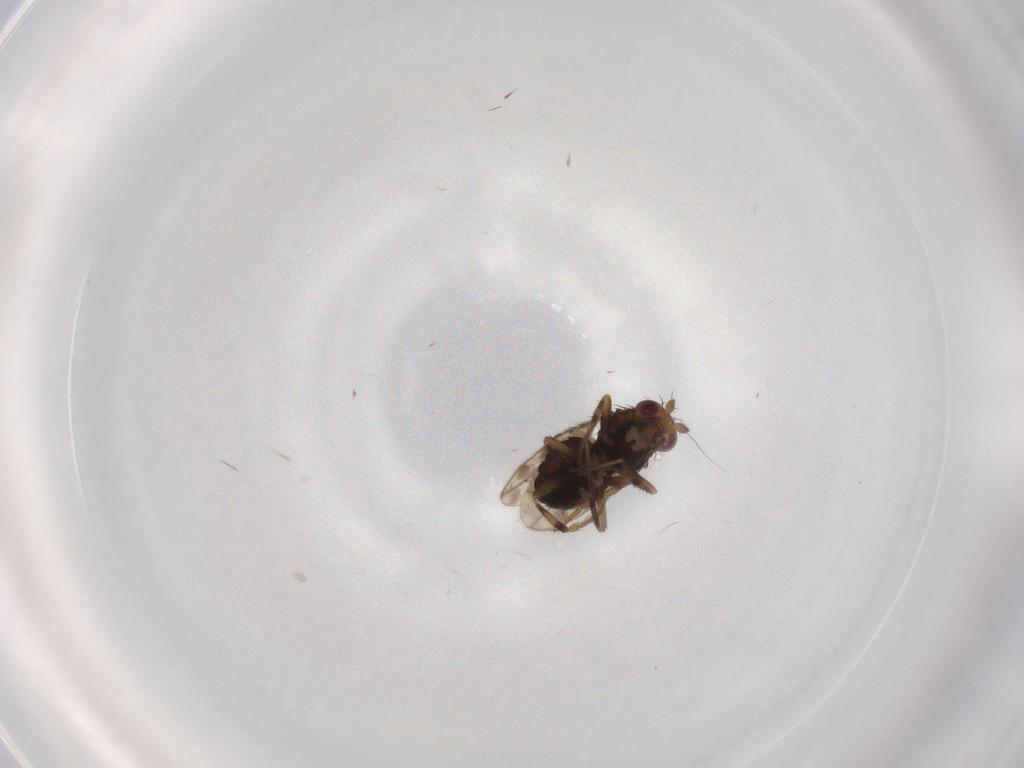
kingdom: Animalia
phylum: Arthropoda
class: Insecta
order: Diptera
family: Sphaeroceridae
